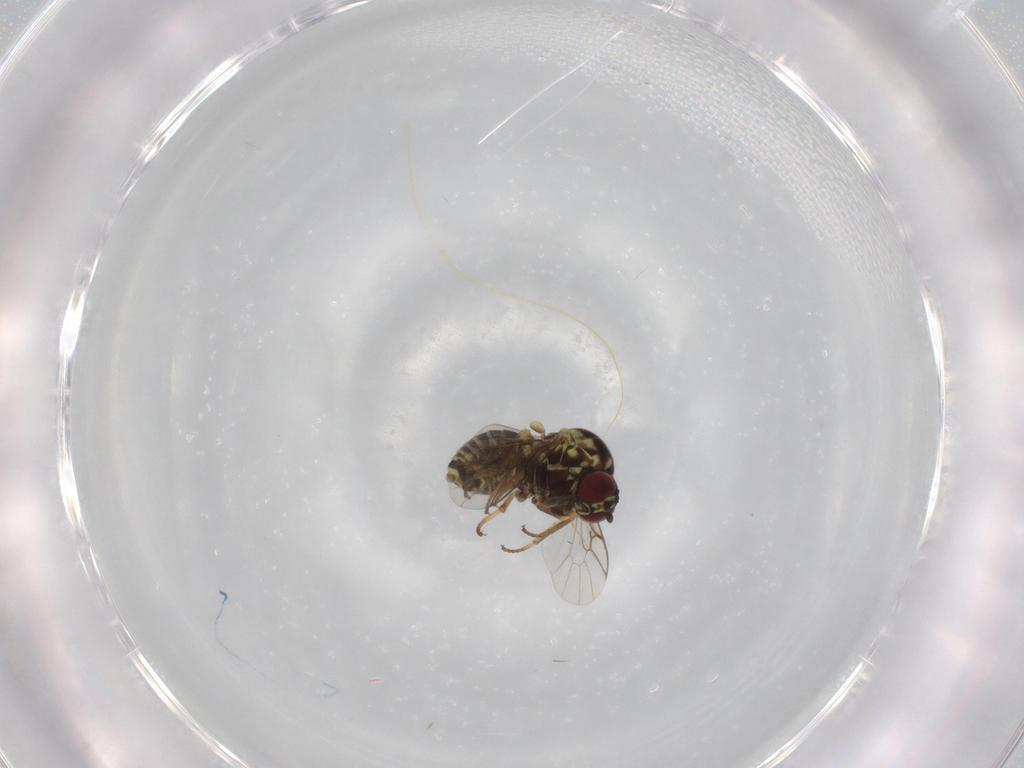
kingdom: Animalia
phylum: Arthropoda
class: Insecta
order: Diptera
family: Bombyliidae
